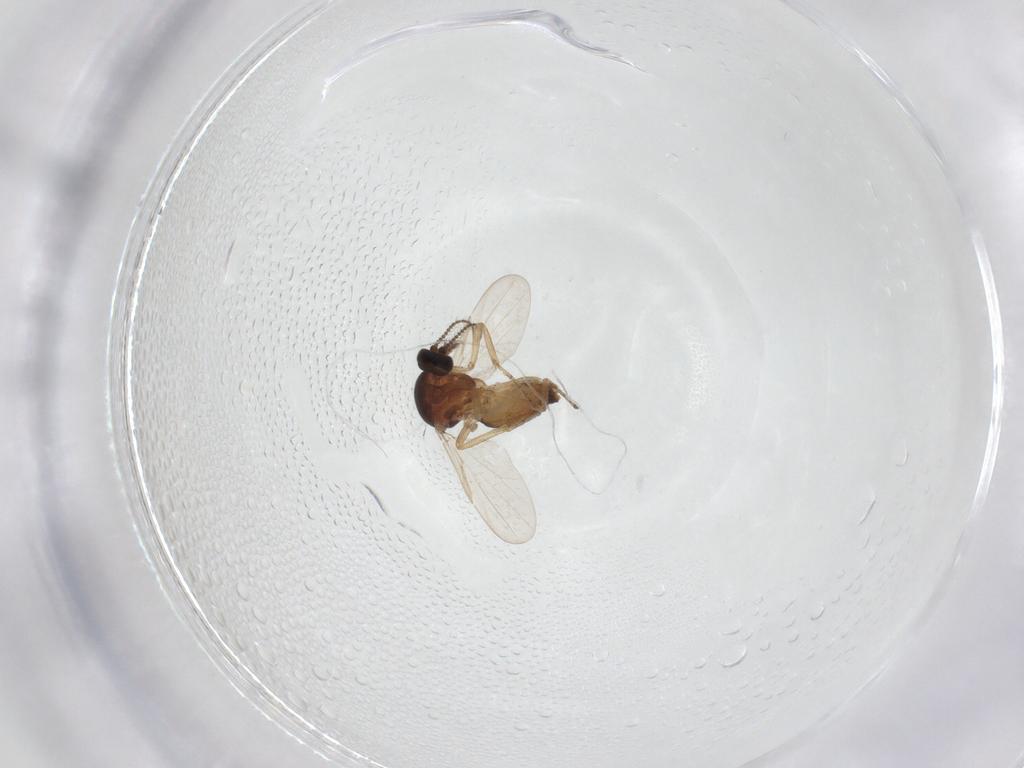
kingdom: Animalia
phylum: Arthropoda
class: Insecta
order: Diptera
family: Ceratopogonidae
